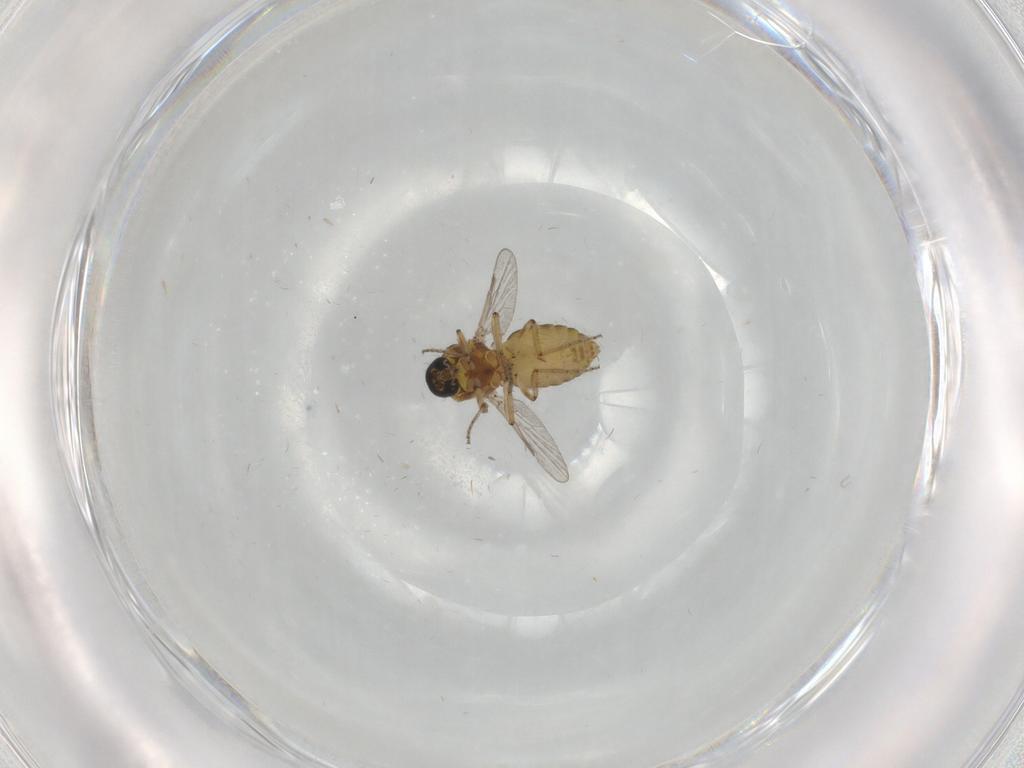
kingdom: Animalia
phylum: Arthropoda
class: Insecta
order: Diptera
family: Ceratopogonidae
